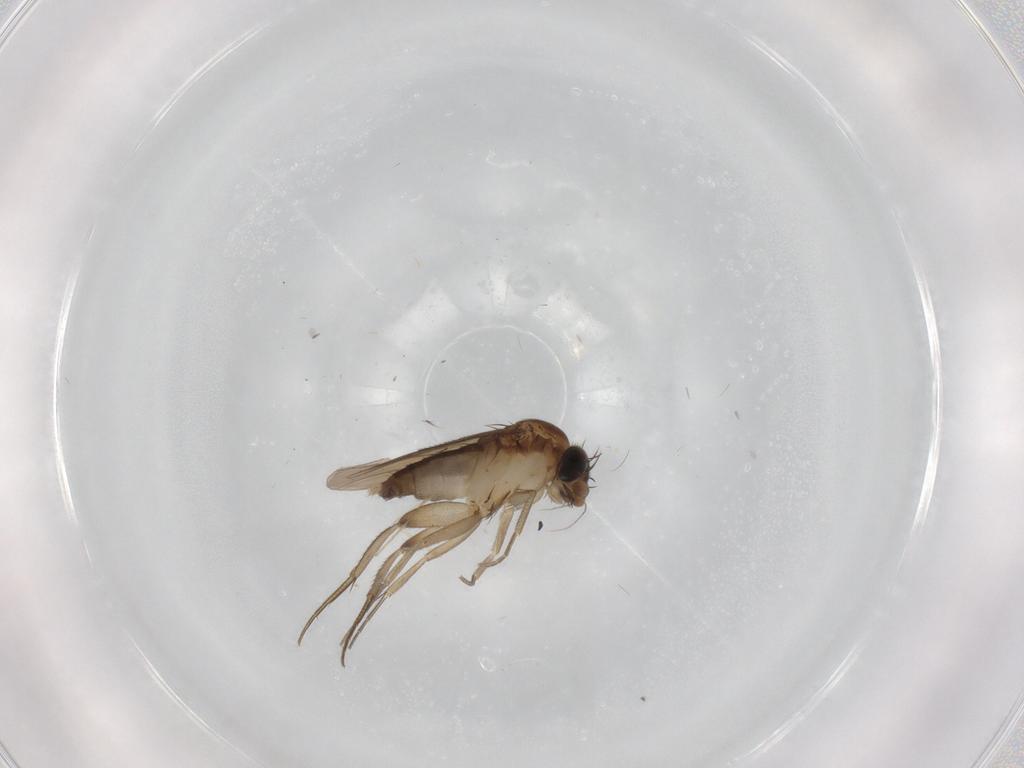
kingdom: Animalia
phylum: Arthropoda
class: Insecta
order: Diptera
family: Phoridae
